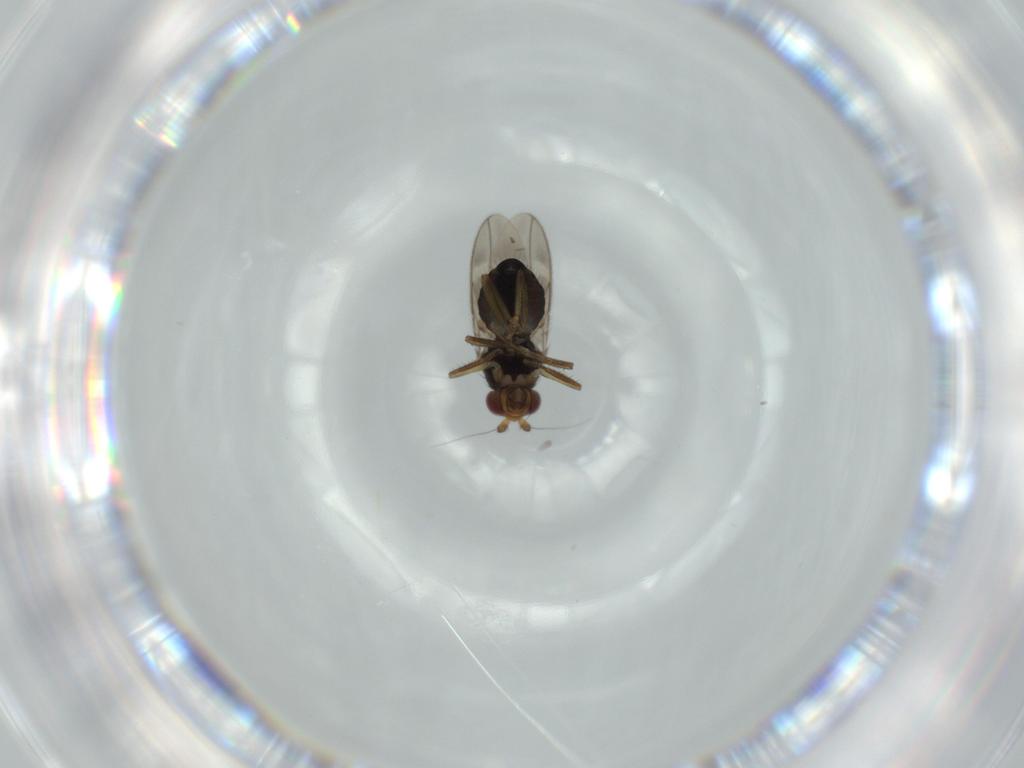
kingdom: Animalia
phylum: Arthropoda
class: Insecta
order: Diptera
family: Sphaeroceridae
